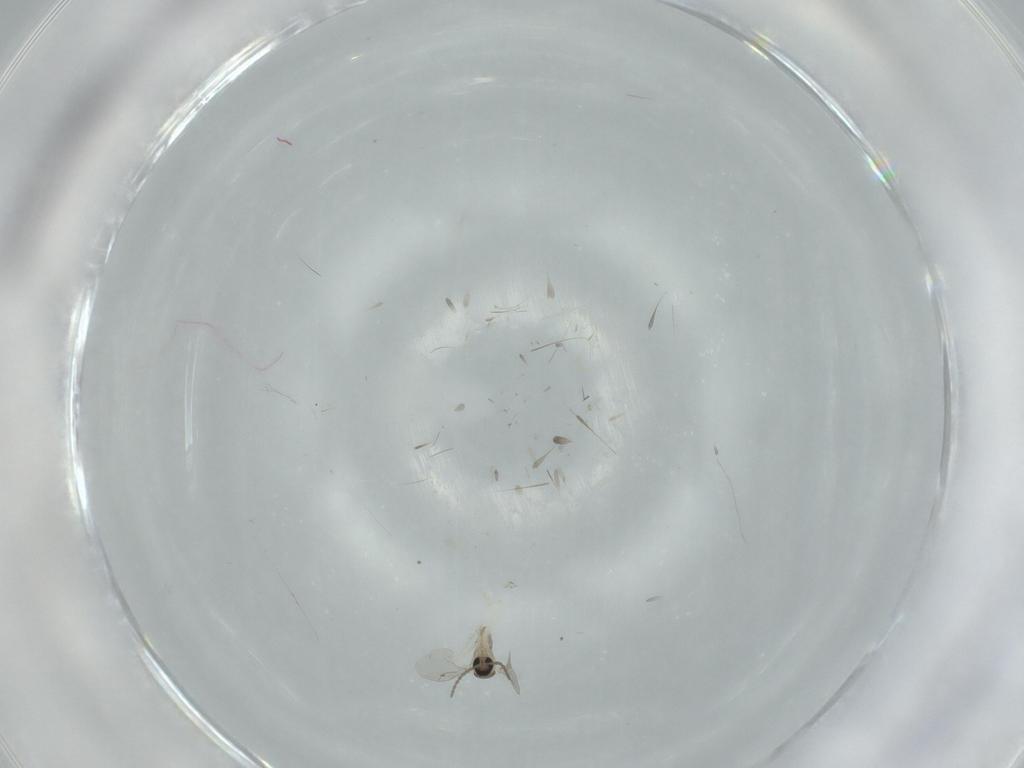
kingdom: Animalia
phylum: Arthropoda
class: Insecta
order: Diptera
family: Cecidomyiidae
